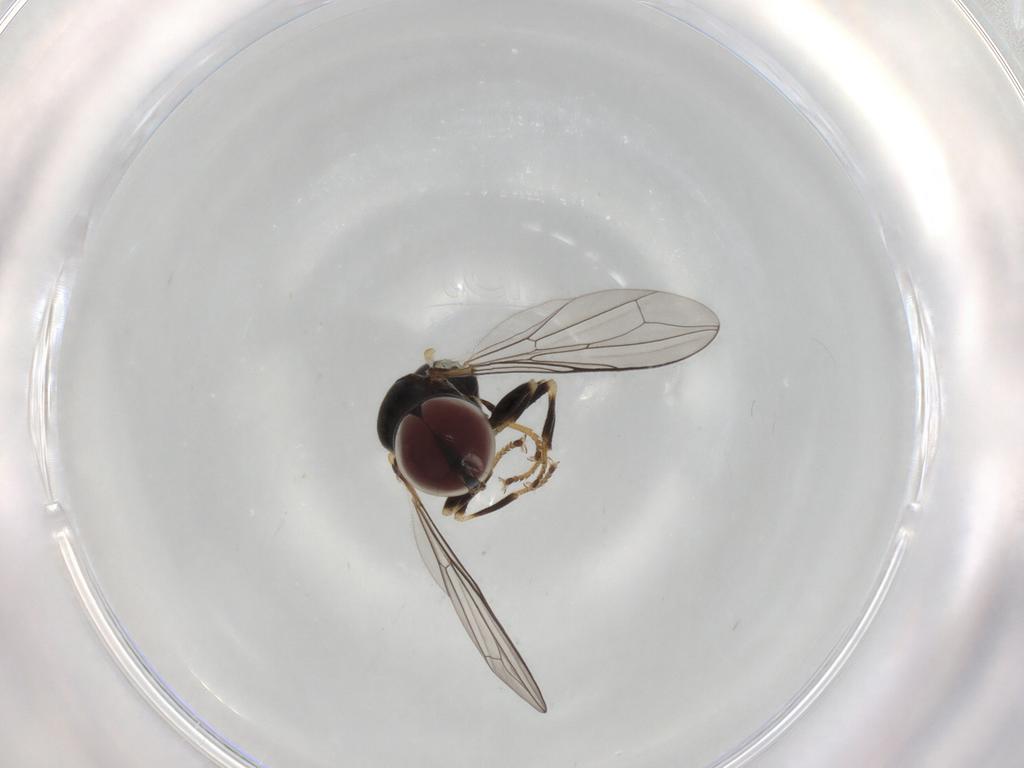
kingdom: Animalia
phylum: Arthropoda
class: Insecta
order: Diptera
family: Pipunculidae
